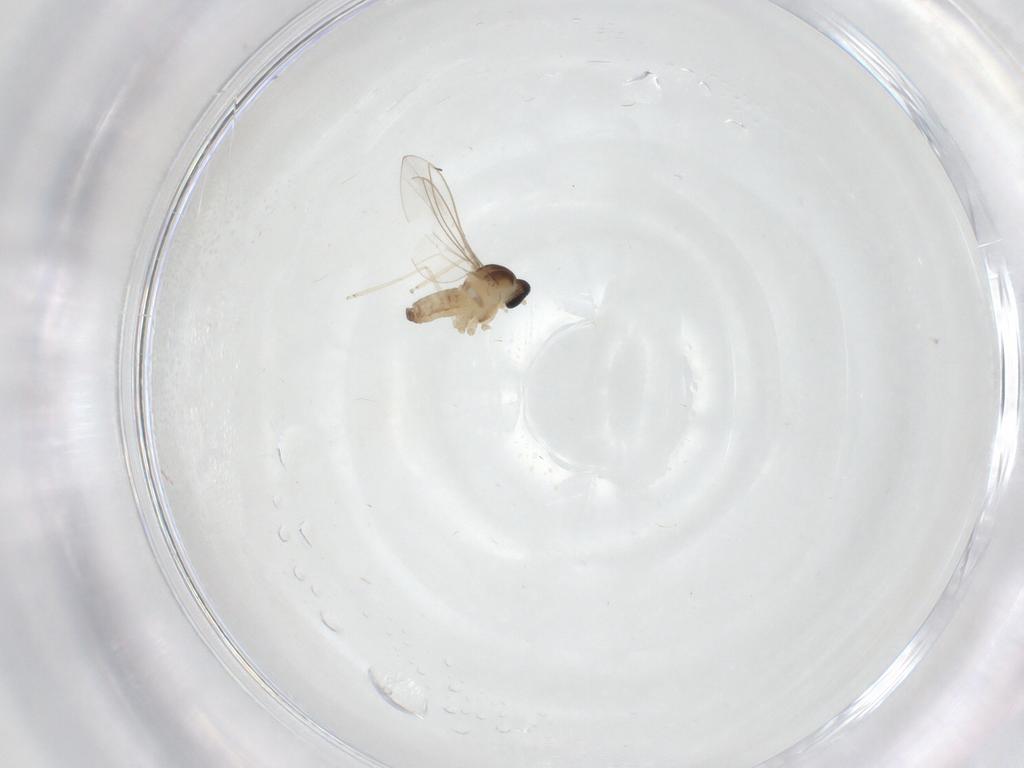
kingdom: Animalia
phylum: Arthropoda
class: Insecta
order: Diptera
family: Cecidomyiidae
